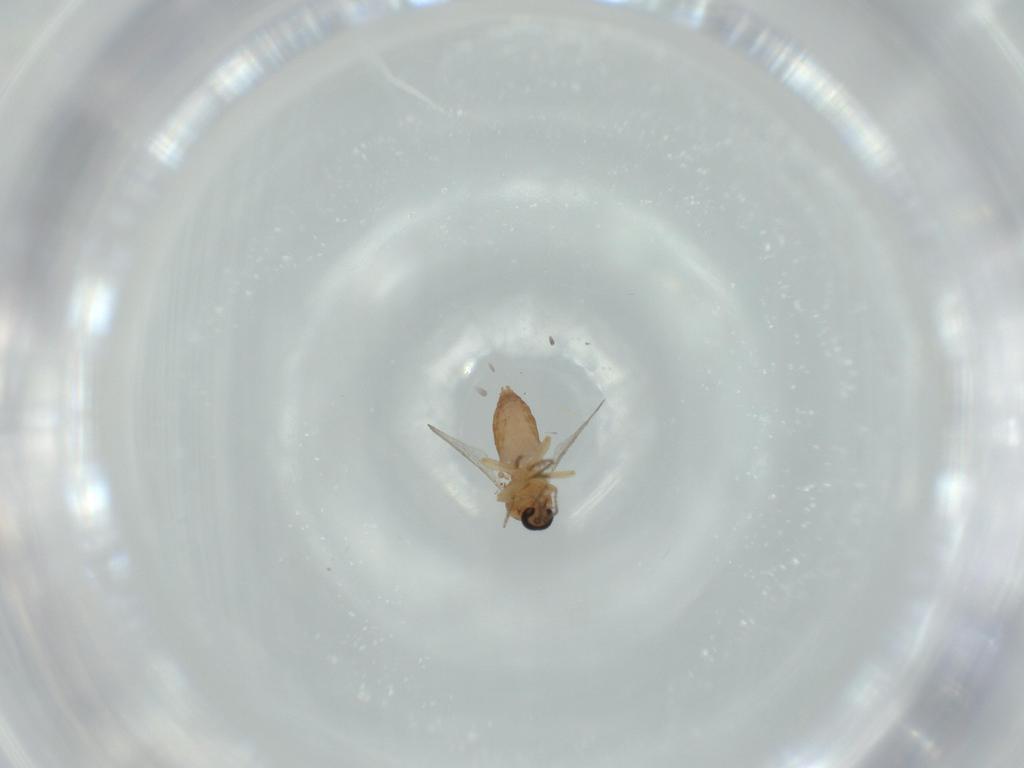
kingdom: Animalia
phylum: Arthropoda
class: Insecta
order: Diptera
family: Ceratopogonidae
